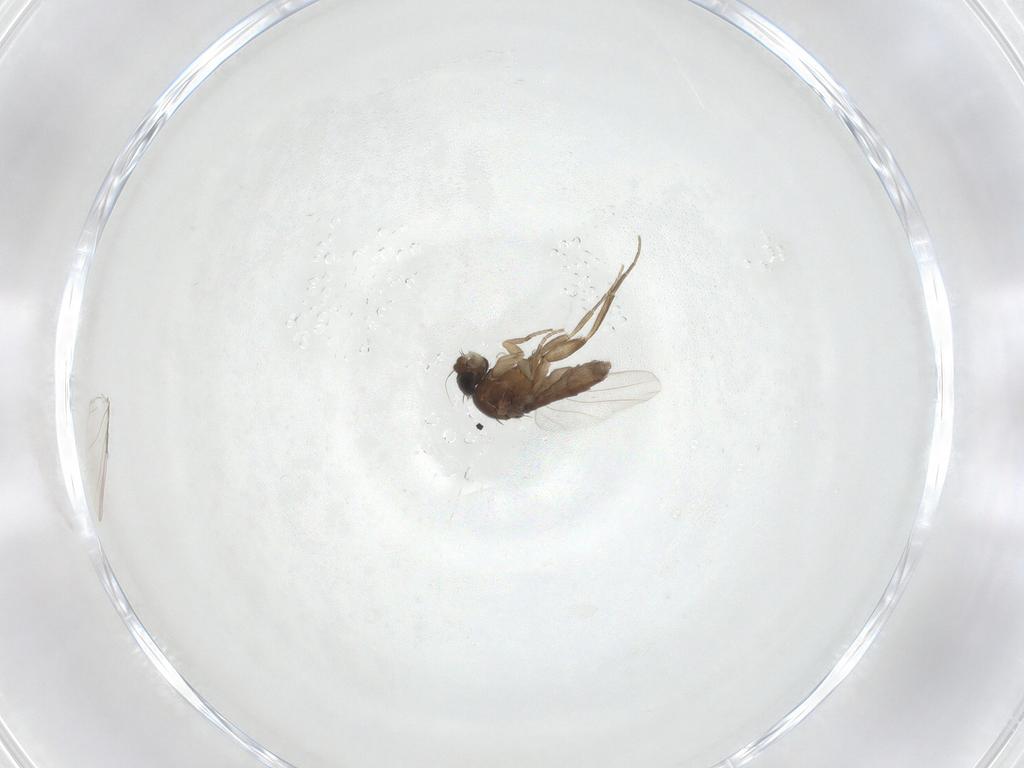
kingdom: Animalia
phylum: Arthropoda
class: Insecta
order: Diptera
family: Phoridae
